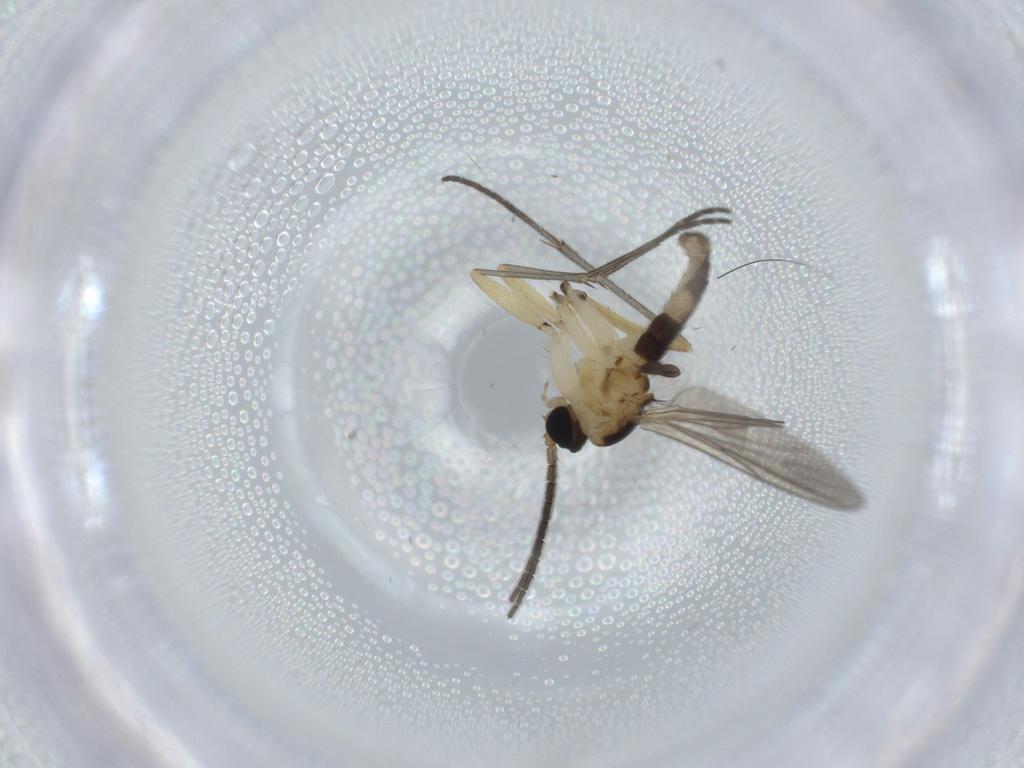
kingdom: Animalia
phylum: Arthropoda
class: Insecta
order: Diptera
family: Cecidomyiidae
